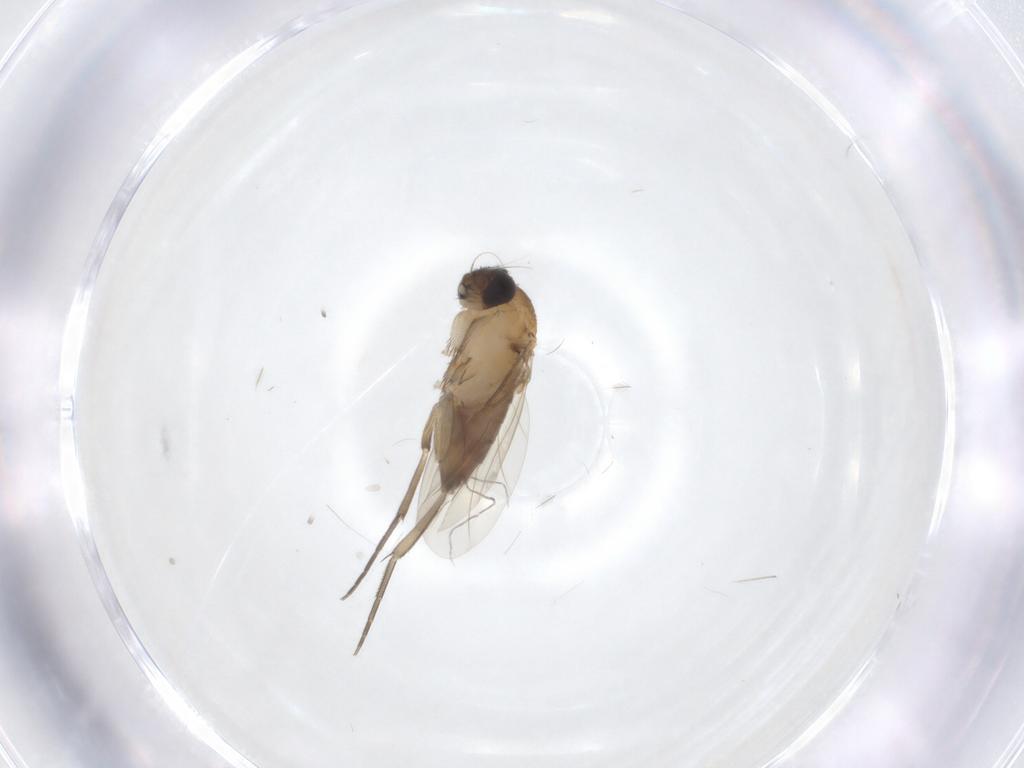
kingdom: Animalia
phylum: Arthropoda
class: Insecta
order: Diptera
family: Phoridae
